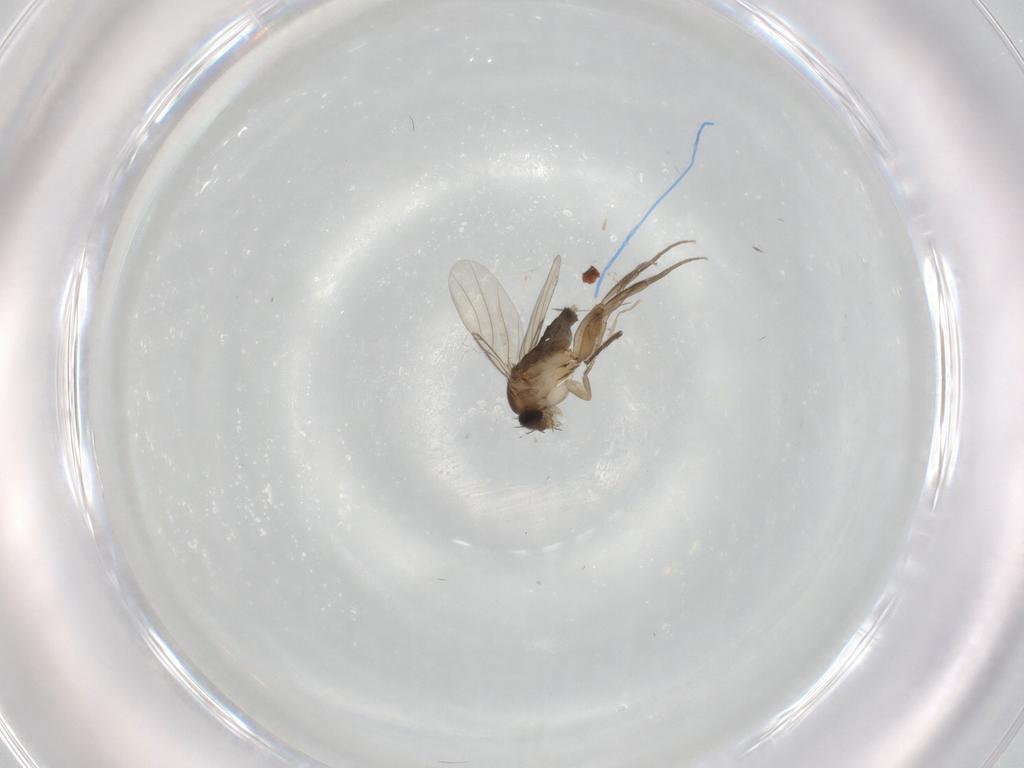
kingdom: Animalia
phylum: Arthropoda
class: Insecta
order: Diptera
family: Phoridae
